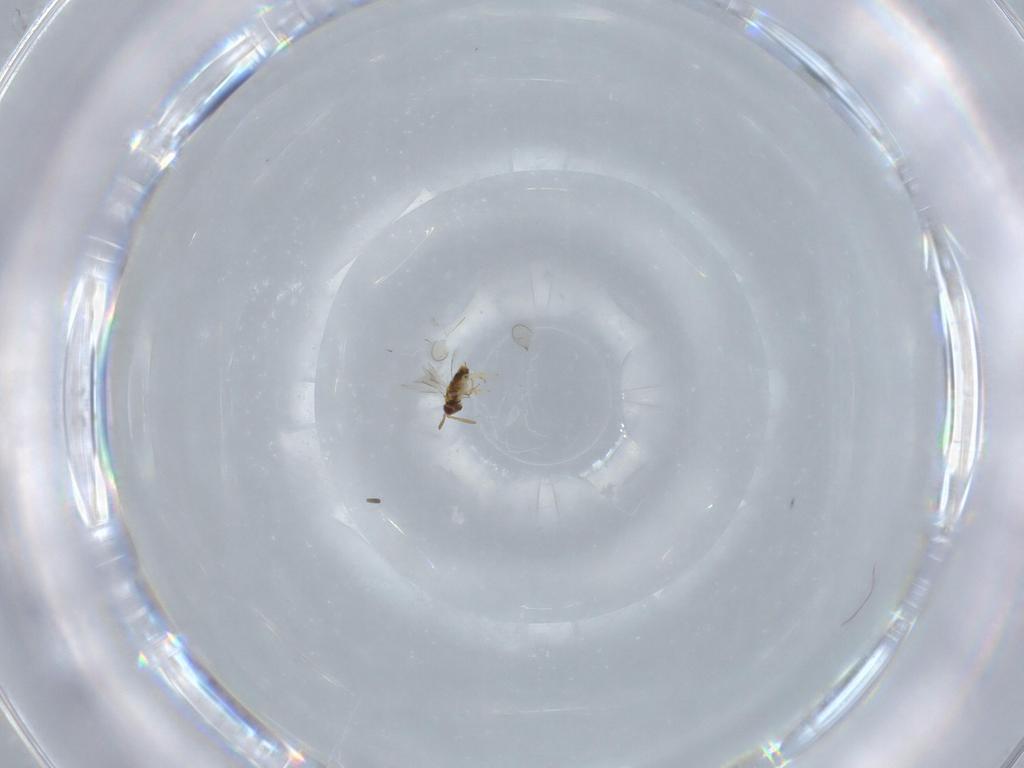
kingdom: Animalia
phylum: Arthropoda
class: Insecta
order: Hymenoptera
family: Aphelinidae
